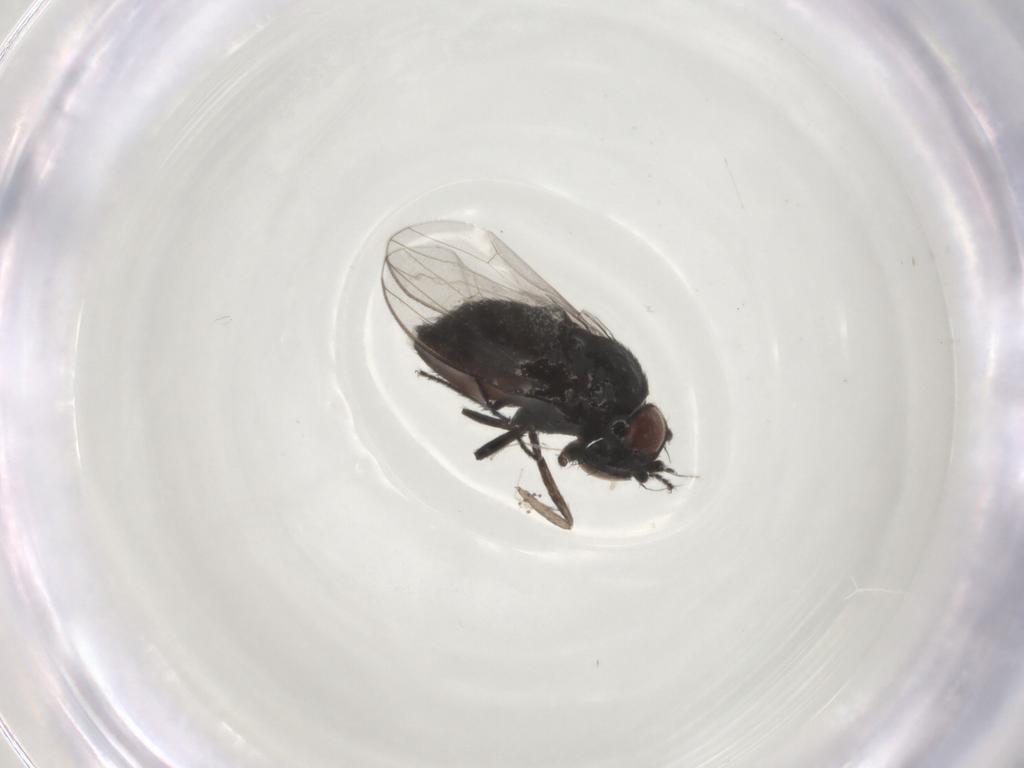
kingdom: Animalia
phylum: Arthropoda
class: Insecta
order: Diptera
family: Milichiidae
